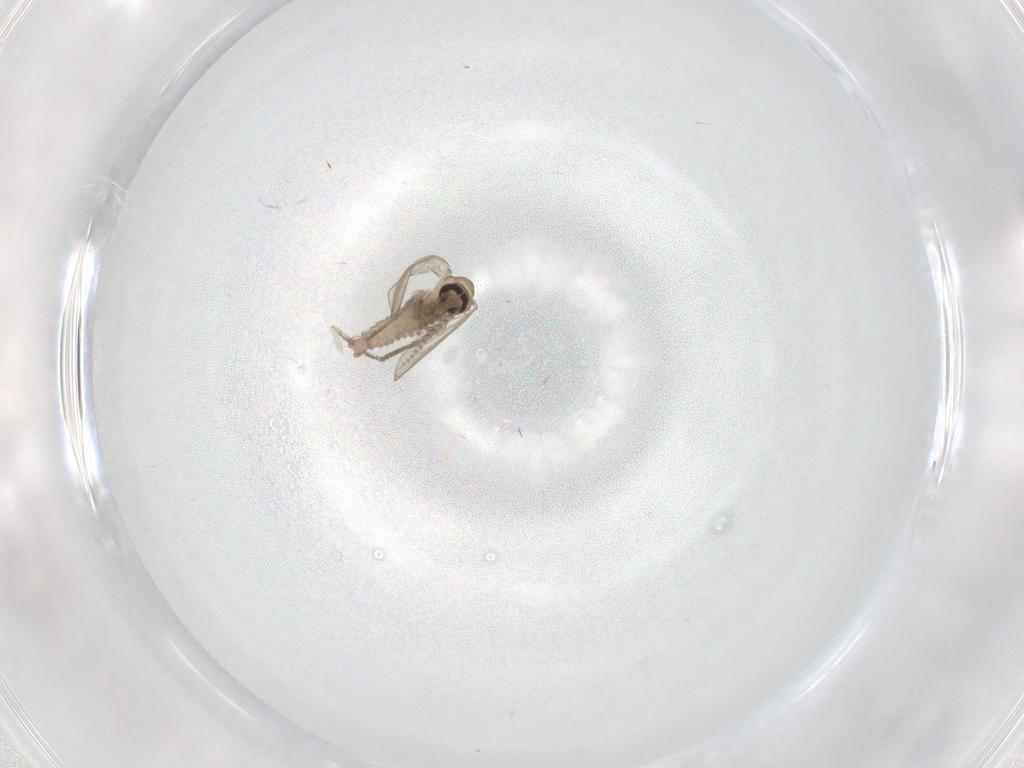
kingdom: Animalia
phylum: Arthropoda
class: Insecta
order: Diptera
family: Psychodidae
